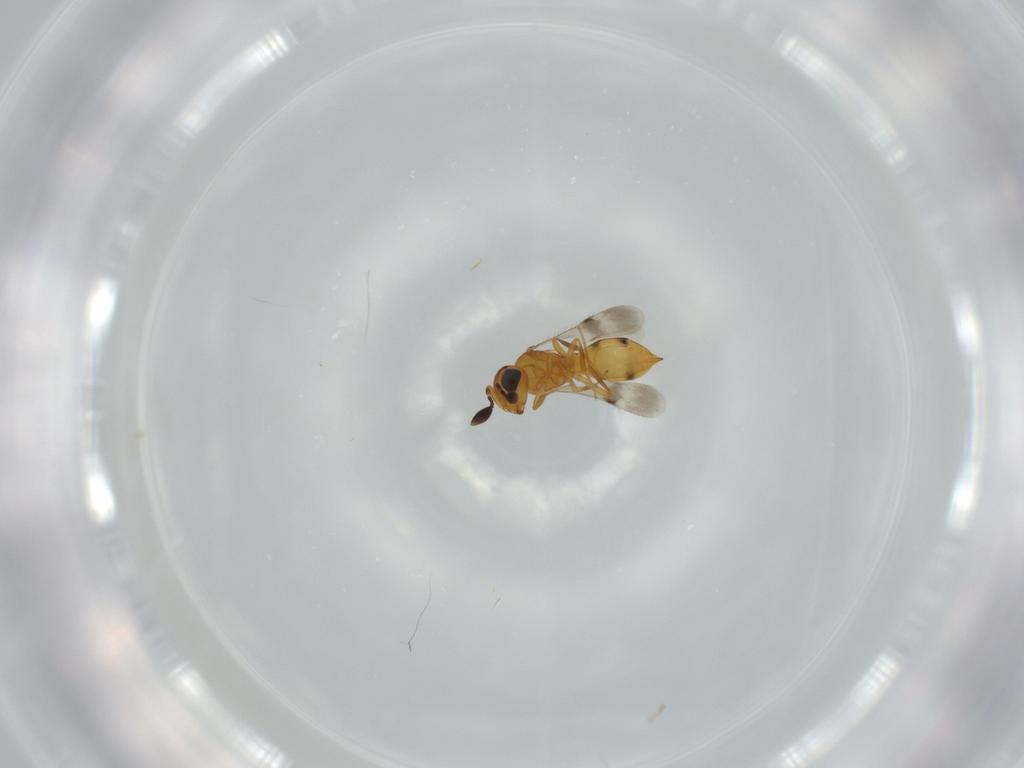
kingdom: Animalia
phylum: Arthropoda
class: Insecta
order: Hymenoptera
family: Scelionidae
